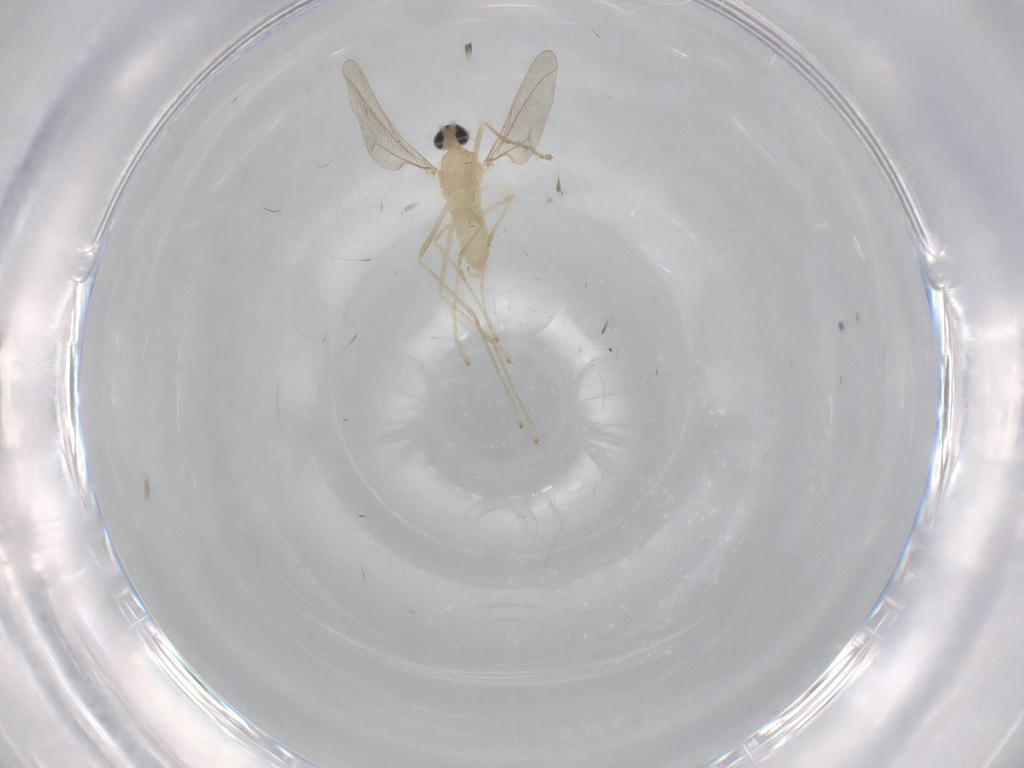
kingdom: Animalia
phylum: Arthropoda
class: Insecta
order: Diptera
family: Cecidomyiidae
